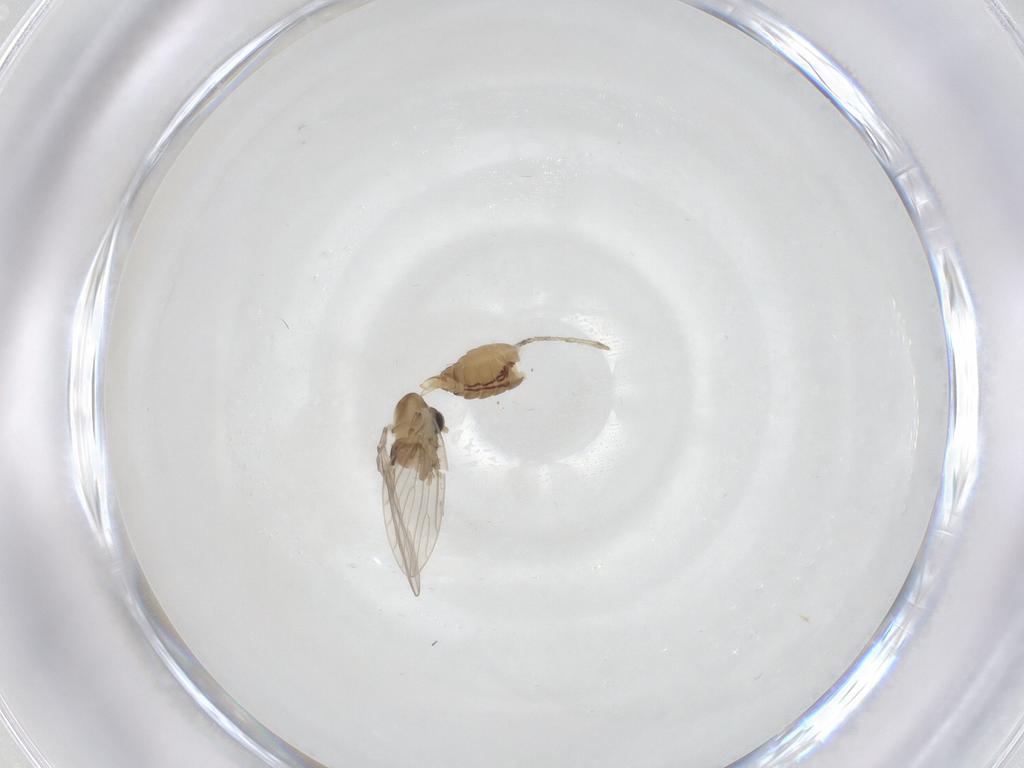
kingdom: Animalia
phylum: Arthropoda
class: Insecta
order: Diptera
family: Psychodidae
